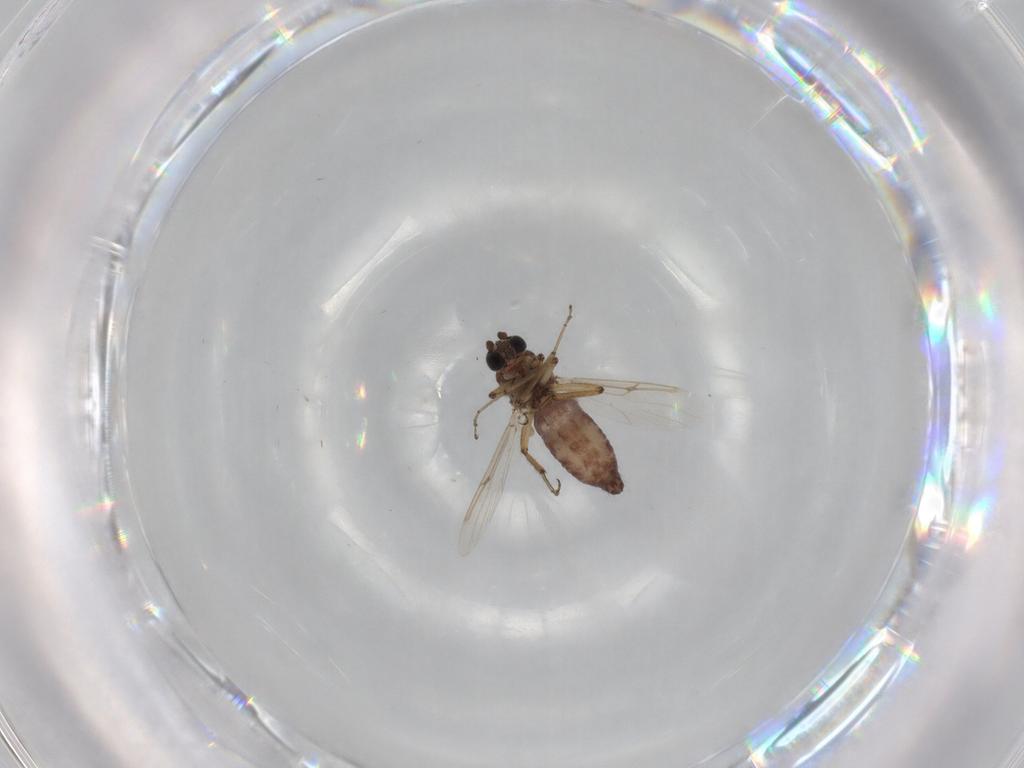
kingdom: Animalia
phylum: Arthropoda
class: Insecta
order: Diptera
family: Ceratopogonidae
